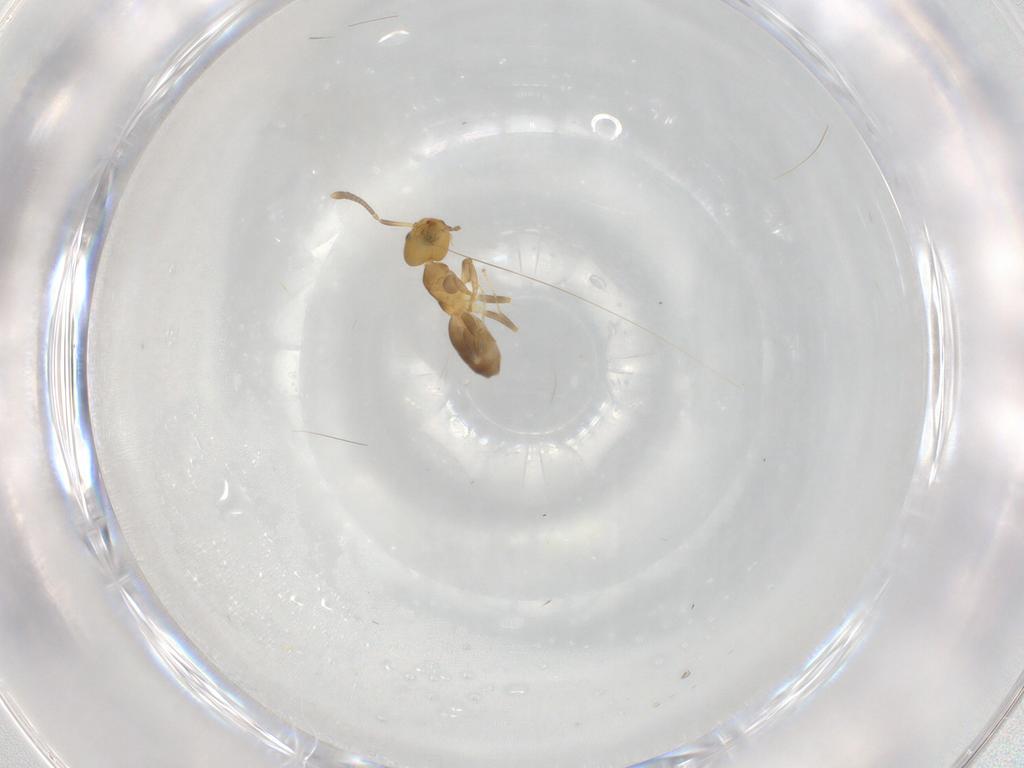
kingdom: Animalia
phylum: Arthropoda
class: Insecta
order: Hymenoptera
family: Formicidae
